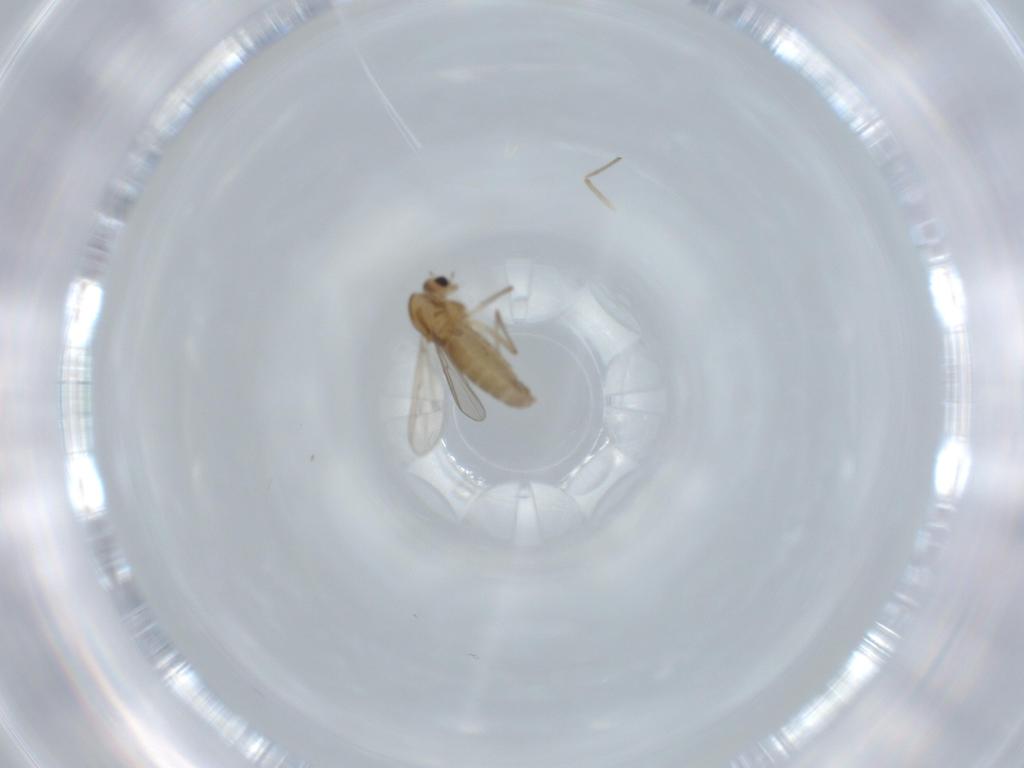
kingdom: Animalia
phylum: Arthropoda
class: Insecta
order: Diptera
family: Chironomidae
